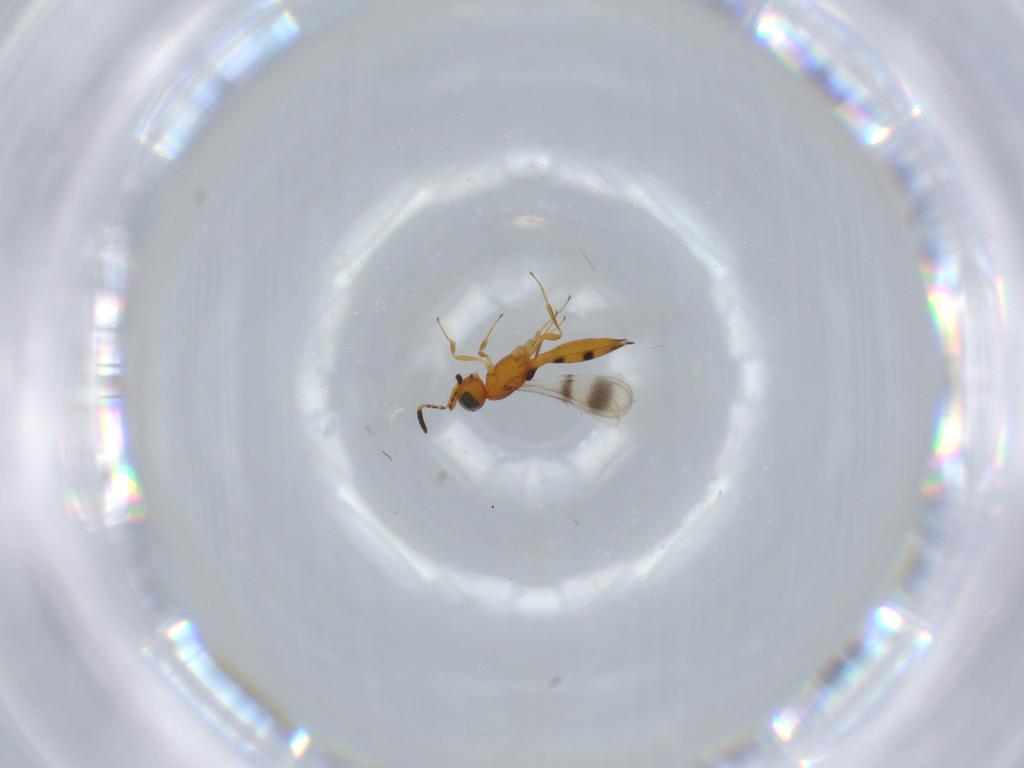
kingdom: Animalia
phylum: Arthropoda
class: Insecta
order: Hymenoptera
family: Scelionidae
